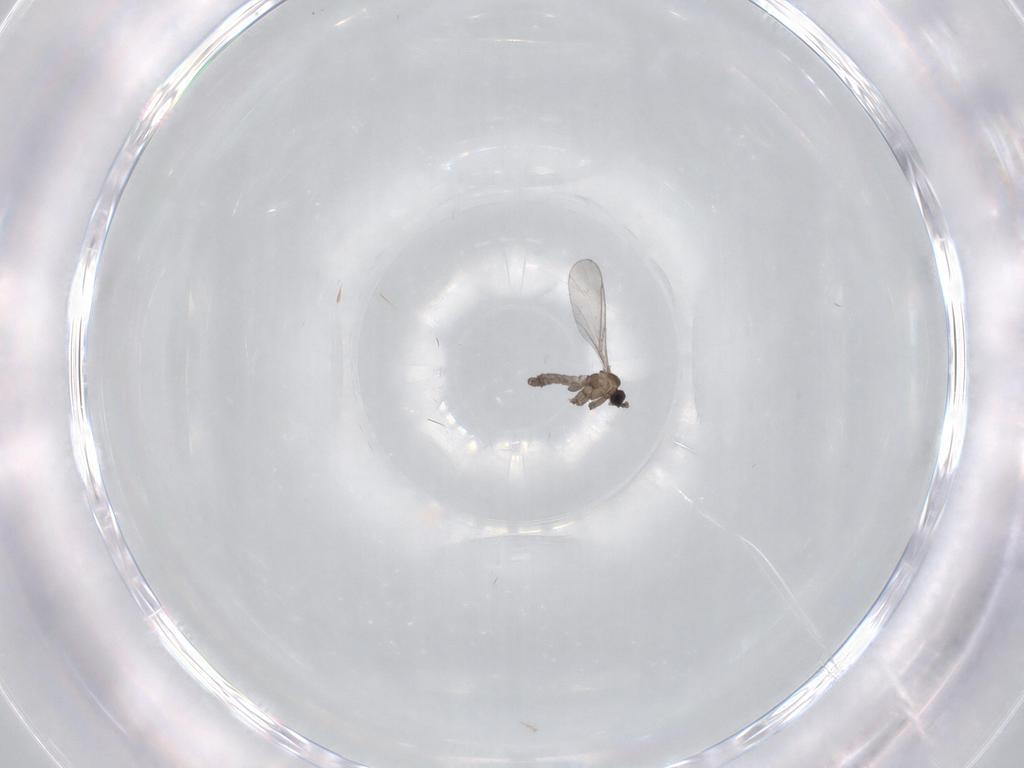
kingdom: Animalia
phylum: Arthropoda
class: Insecta
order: Diptera
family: Sciaridae
